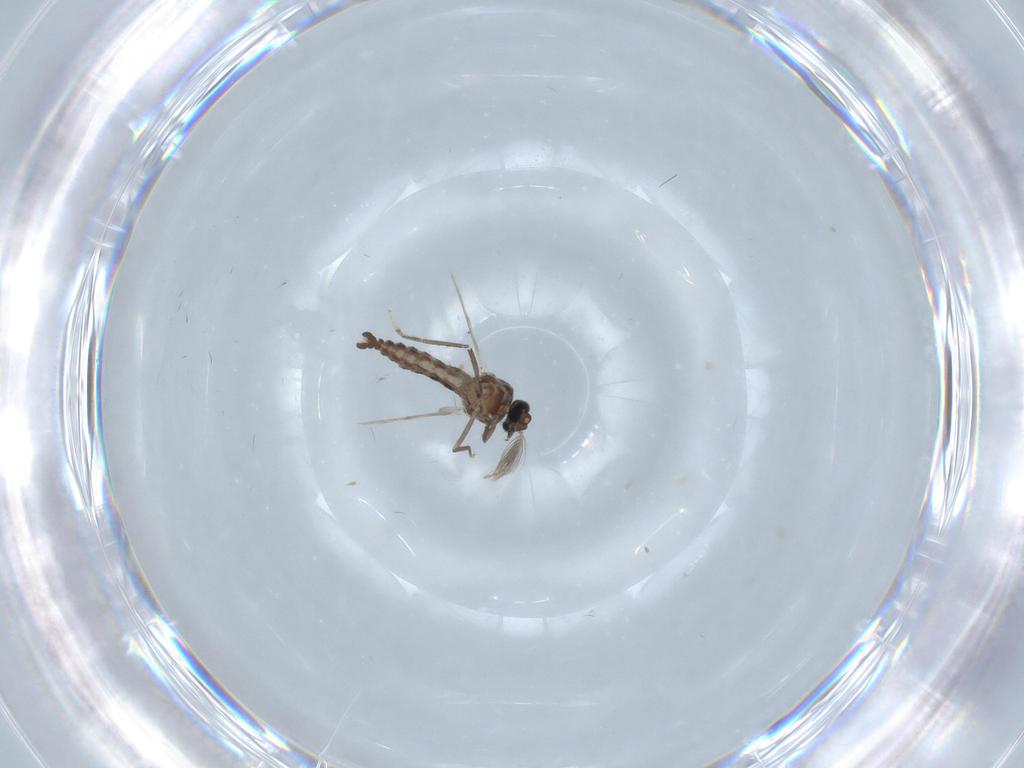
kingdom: Animalia
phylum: Arthropoda
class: Insecta
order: Diptera
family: Ceratopogonidae
